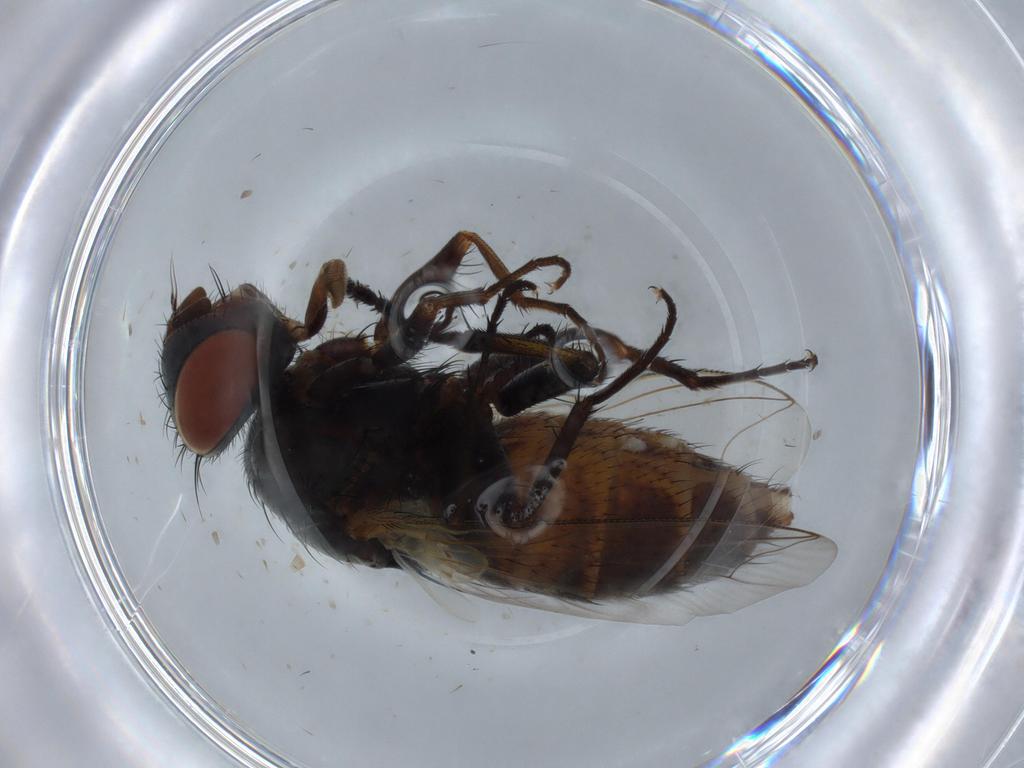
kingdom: Animalia
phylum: Arthropoda
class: Insecta
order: Diptera
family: Sarcophagidae
